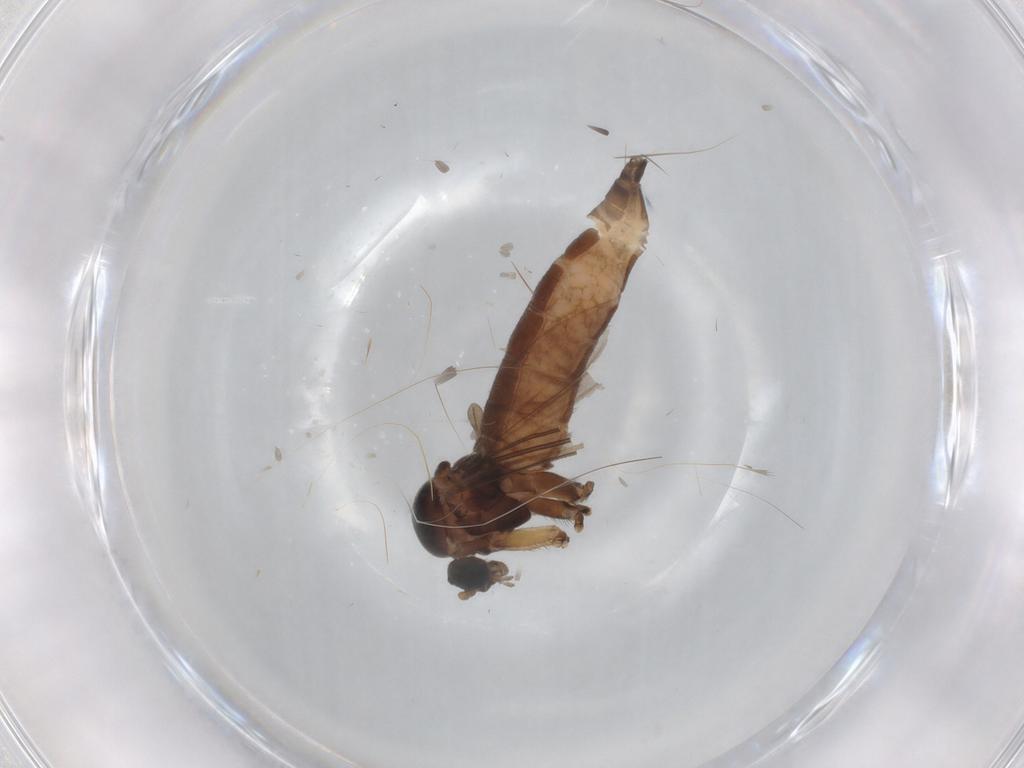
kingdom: Animalia
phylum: Arthropoda
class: Insecta
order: Diptera
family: Sciaridae
